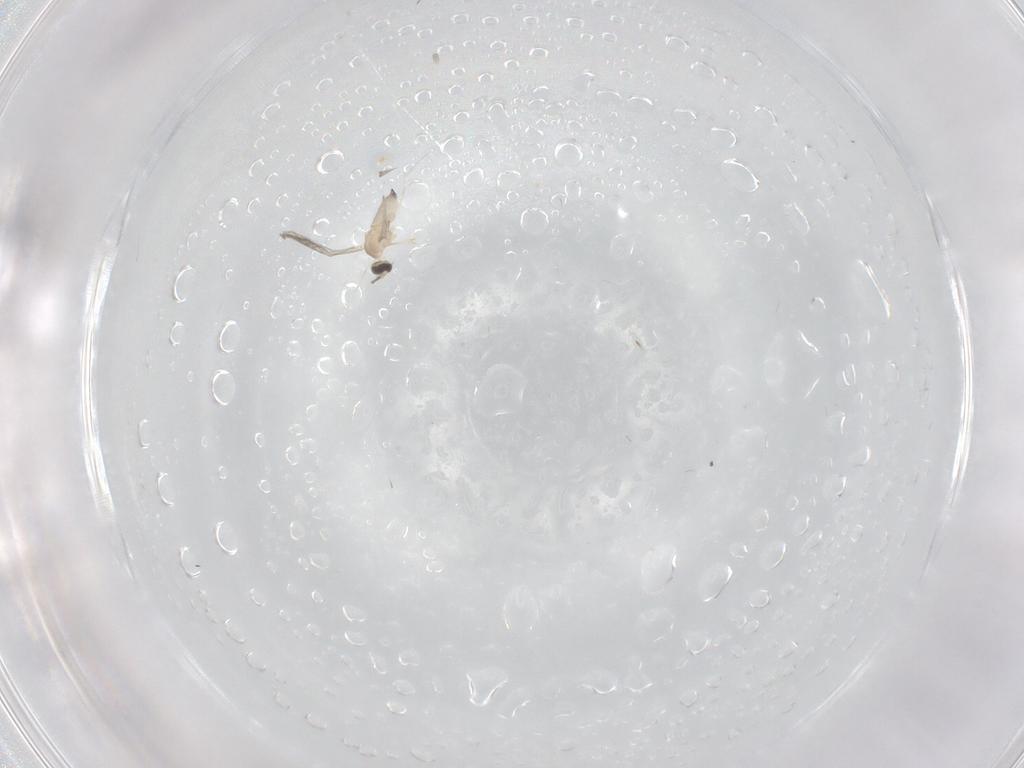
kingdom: Animalia
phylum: Arthropoda
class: Insecta
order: Diptera
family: Cecidomyiidae
